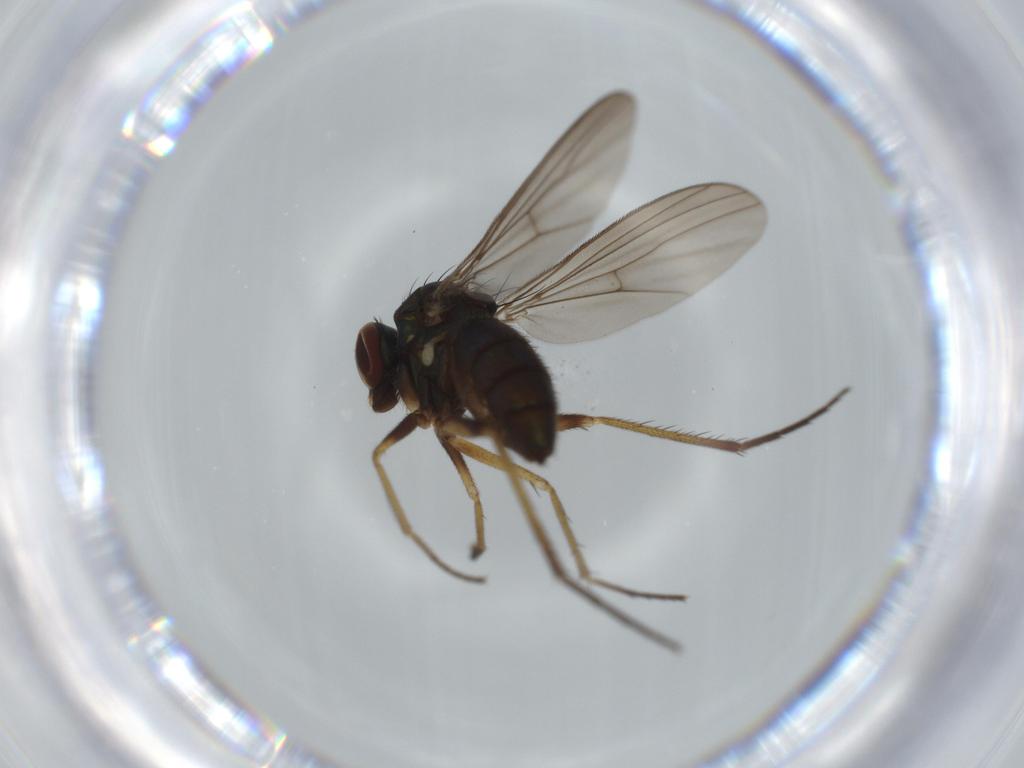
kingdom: Animalia
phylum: Arthropoda
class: Insecta
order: Diptera
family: Dolichopodidae
